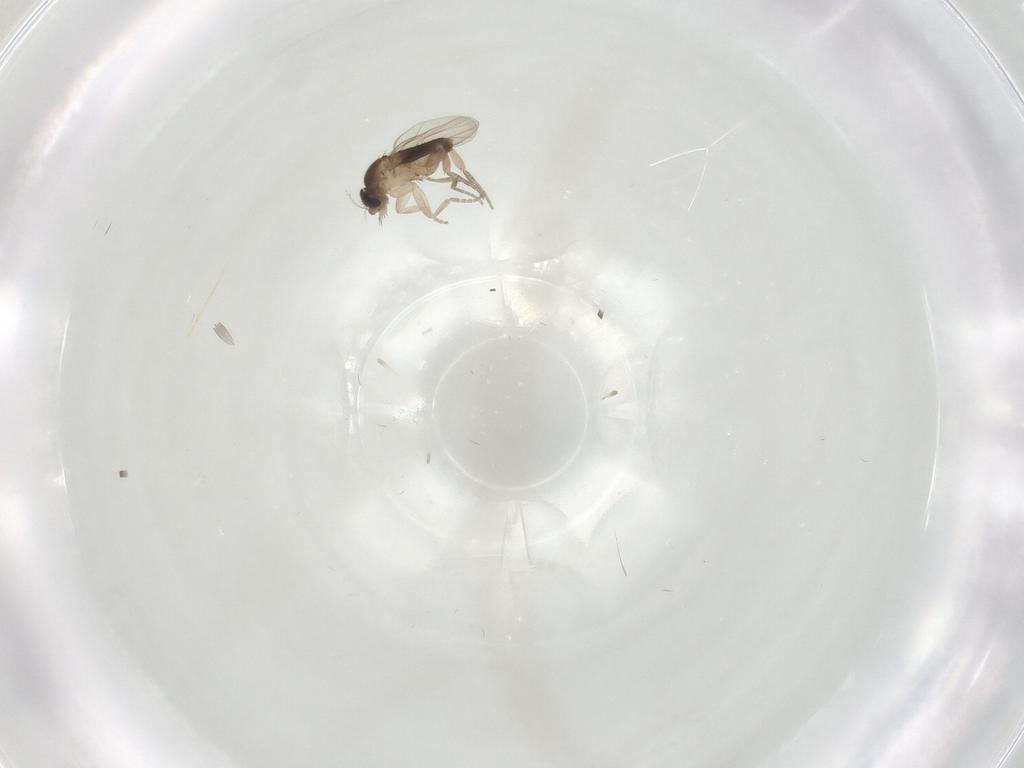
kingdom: Animalia
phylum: Arthropoda
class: Insecta
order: Diptera
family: Phoridae
